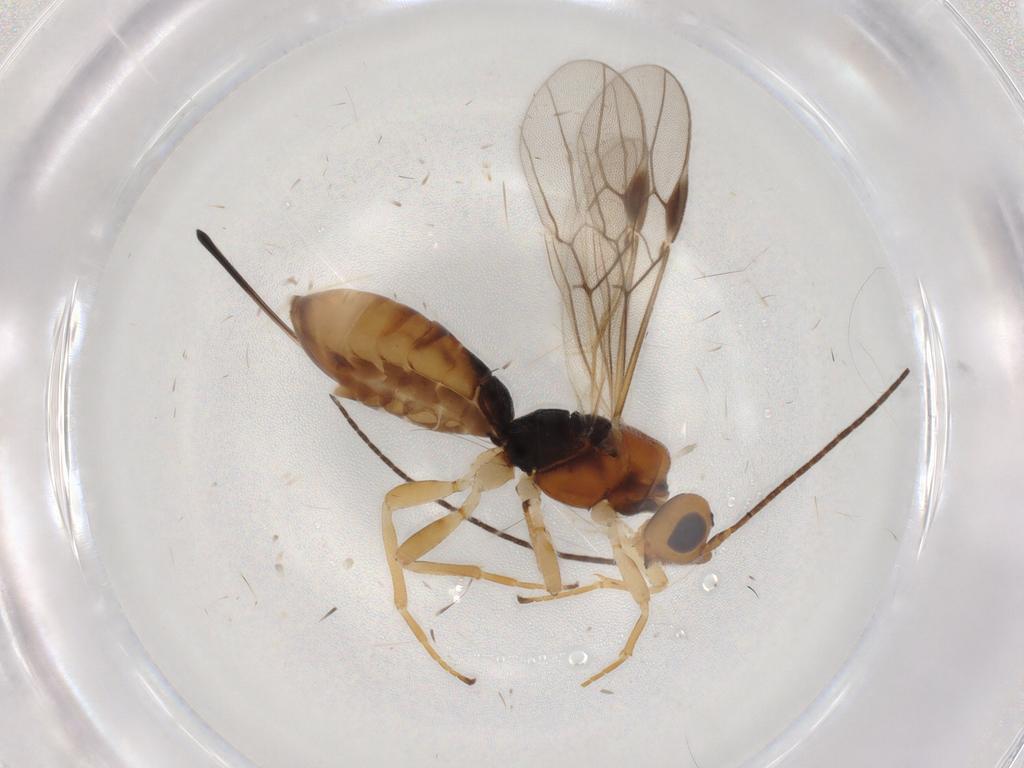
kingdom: Animalia
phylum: Arthropoda
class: Insecta
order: Hymenoptera
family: Braconidae
